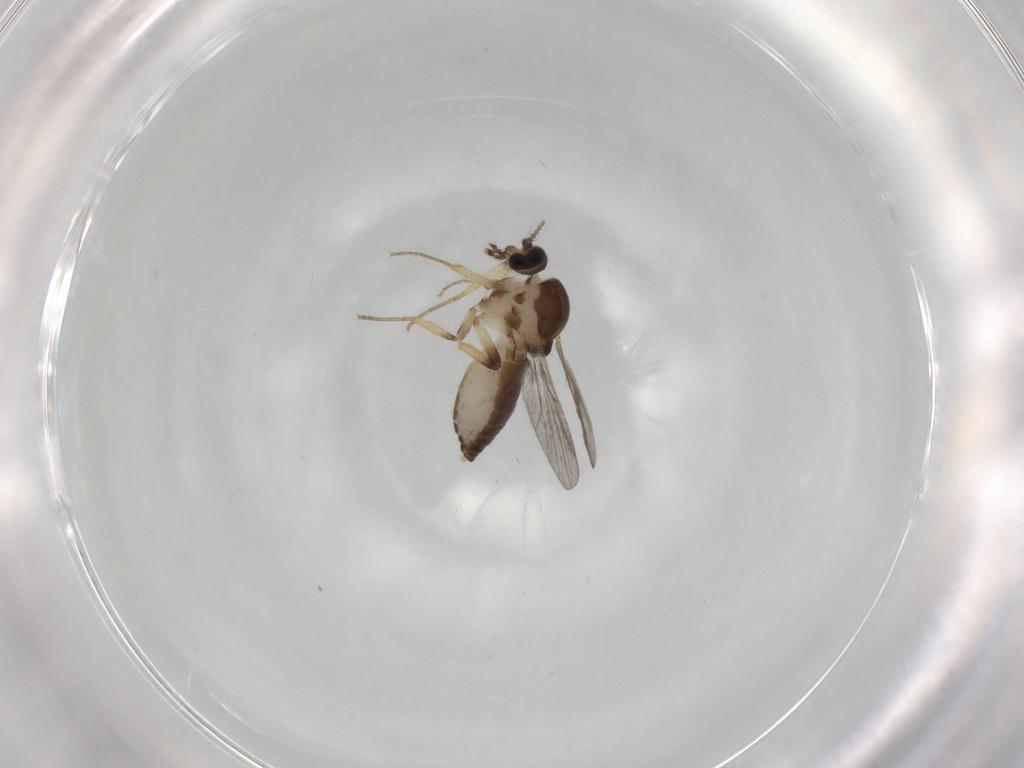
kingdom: Animalia
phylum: Arthropoda
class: Insecta
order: Diptera
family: Ceratopogonidae
